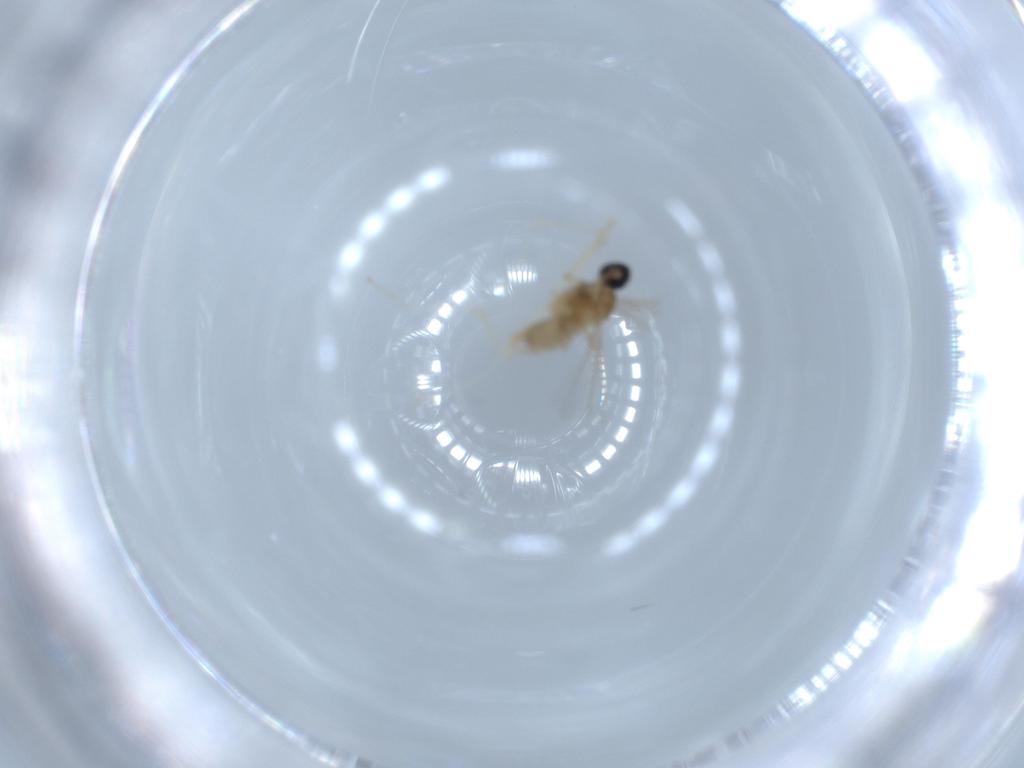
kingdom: Animalia
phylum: Arthropoda
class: Insecta
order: Diptera
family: Cecidomyiidae
